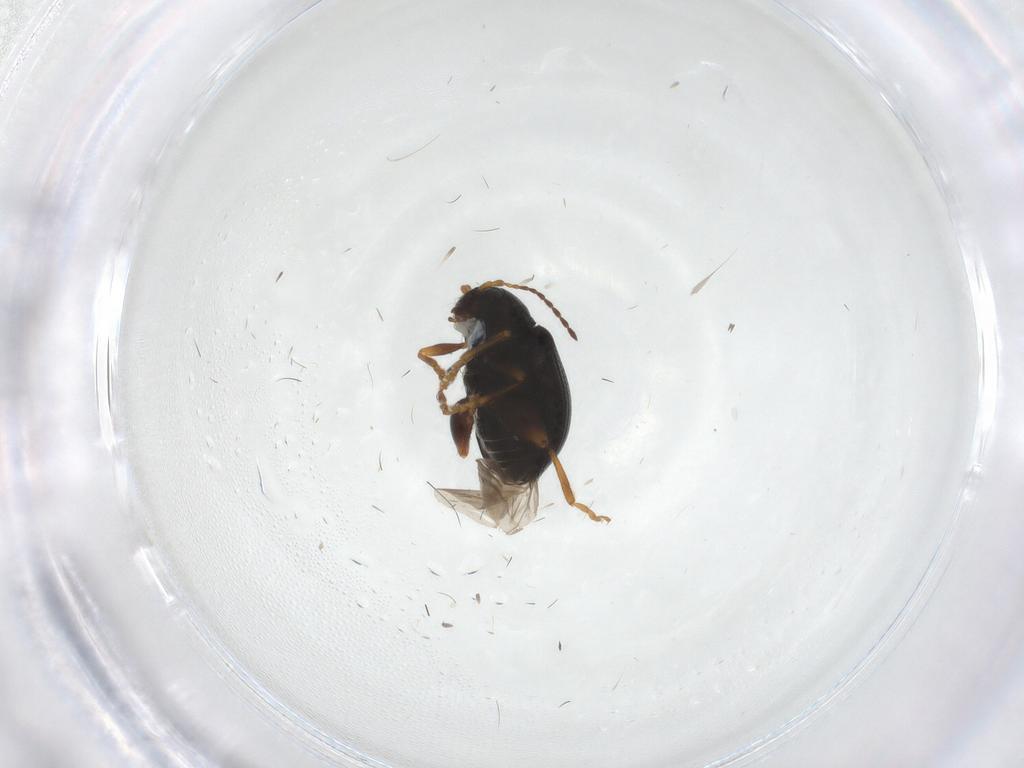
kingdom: Animalia
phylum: Arthropoda
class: Insecta
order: Coleoptera
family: Chrysomelidae
